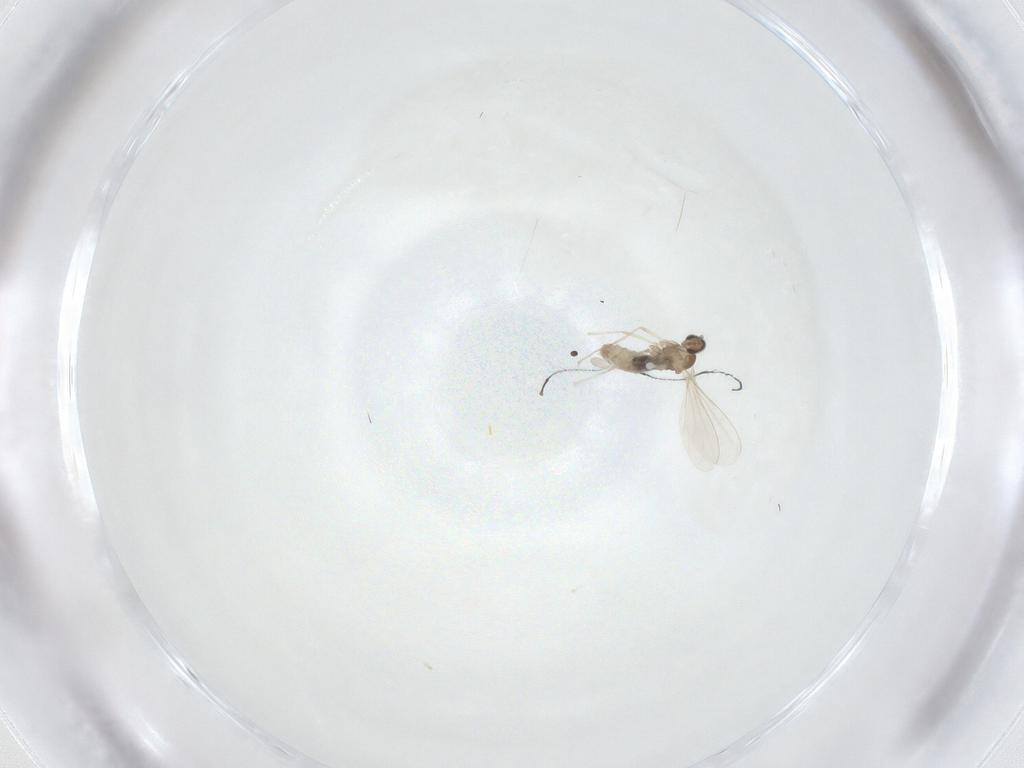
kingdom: Animalia
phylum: Arthropoda
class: Insecta
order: Diptera
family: Cecidomyiidae
